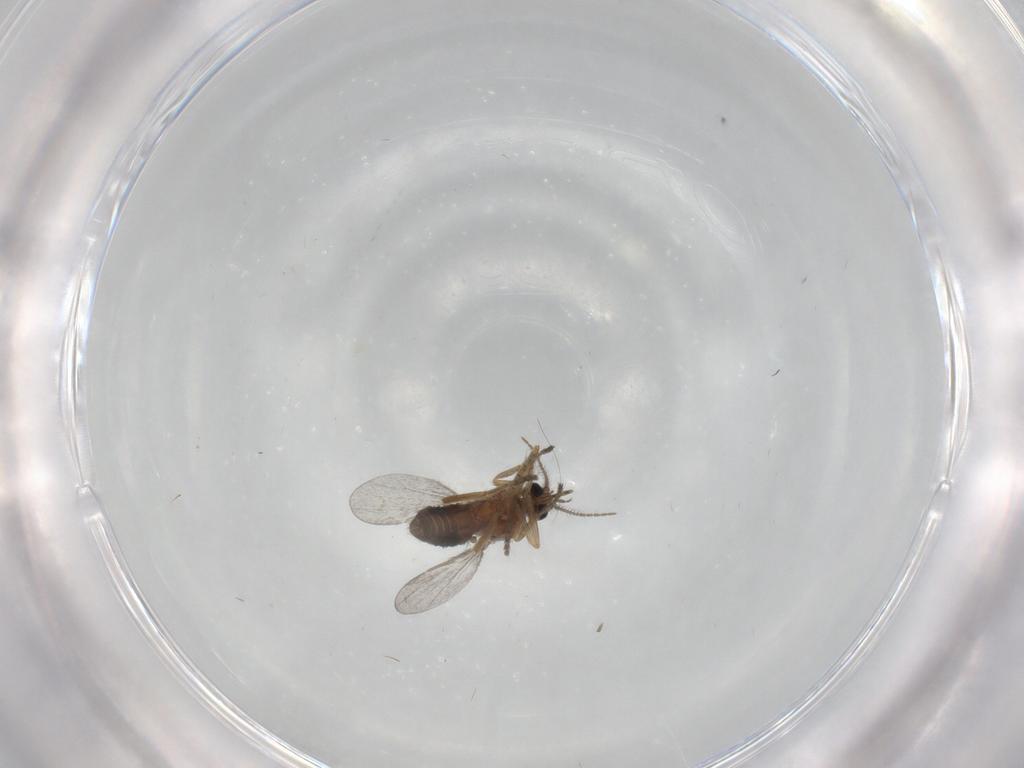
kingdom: Animalia
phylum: Arthropoda
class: Insecta
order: Diptera
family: Ceratopogonidae
